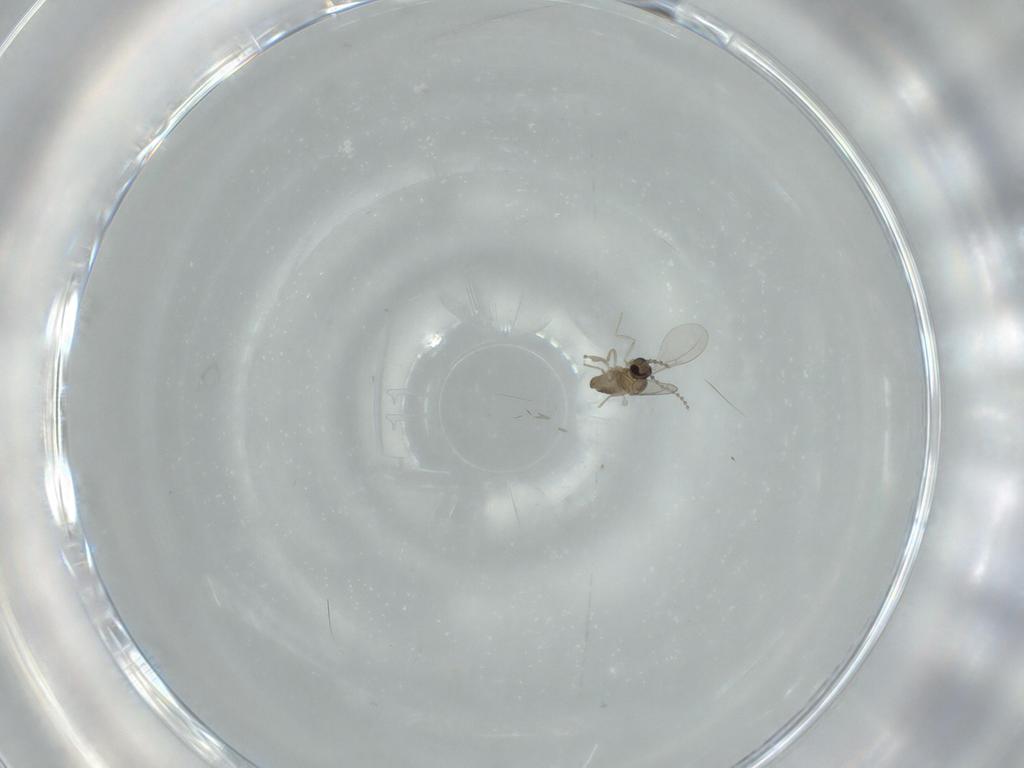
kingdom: Animalia
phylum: Arthropoda
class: Insecta
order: Diptera
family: Cecidomyiidae
